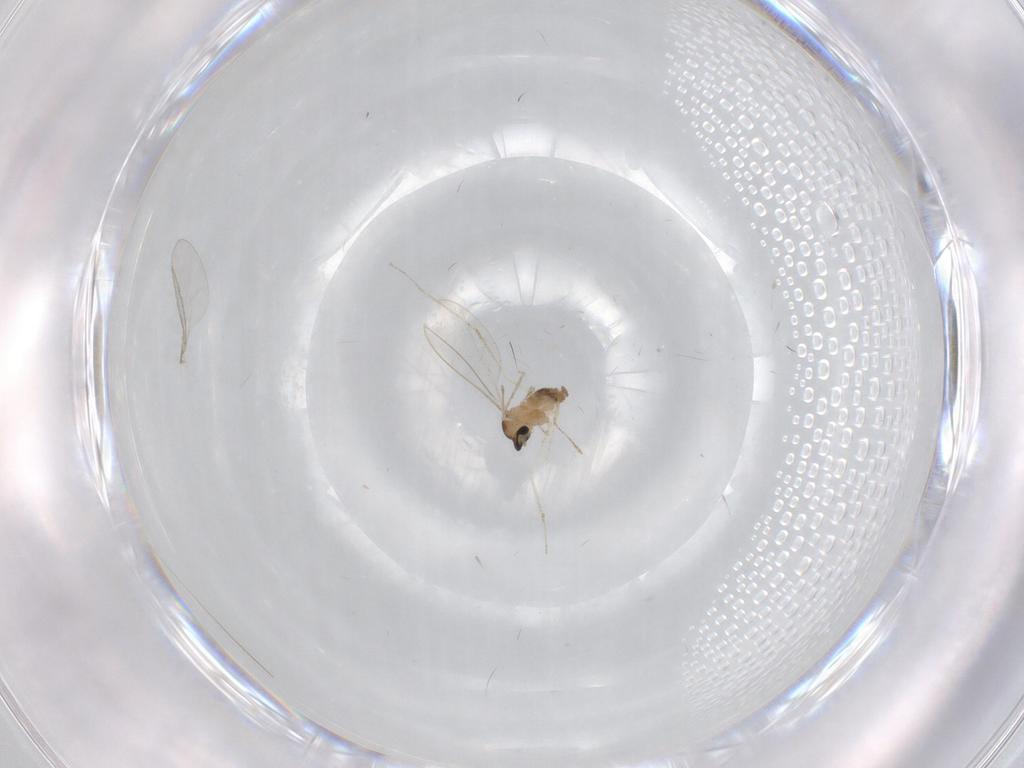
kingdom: Animalia
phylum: Arthropoda
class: Insecta
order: Diptera
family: Cecidomyiidae
